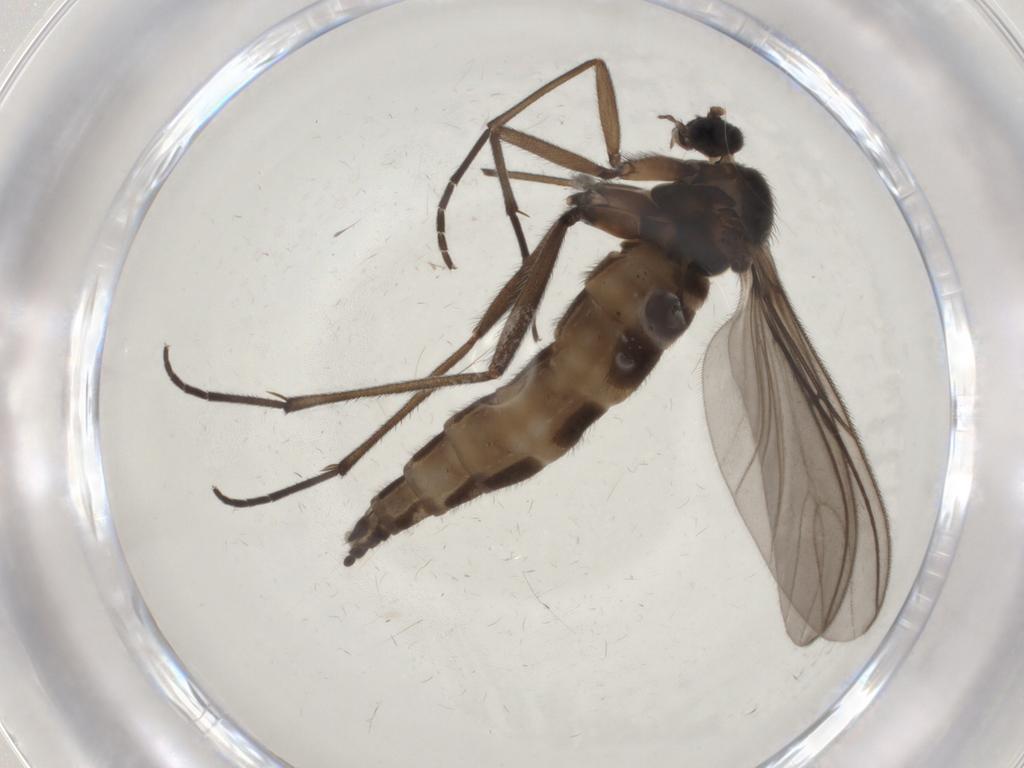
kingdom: Animalia
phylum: Arthropoda
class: Insecta
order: Diptera
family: Sciaridae
